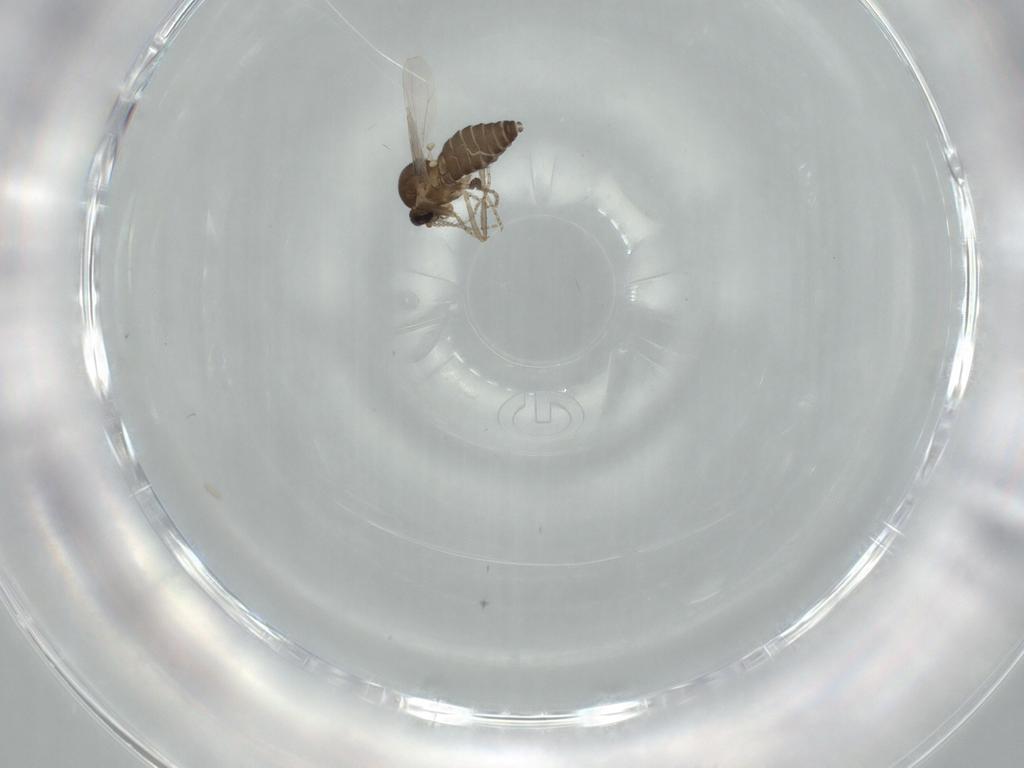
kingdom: Animalia
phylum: Arthropoda
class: Insecta
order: Diptera
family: Ceratopogonidae
